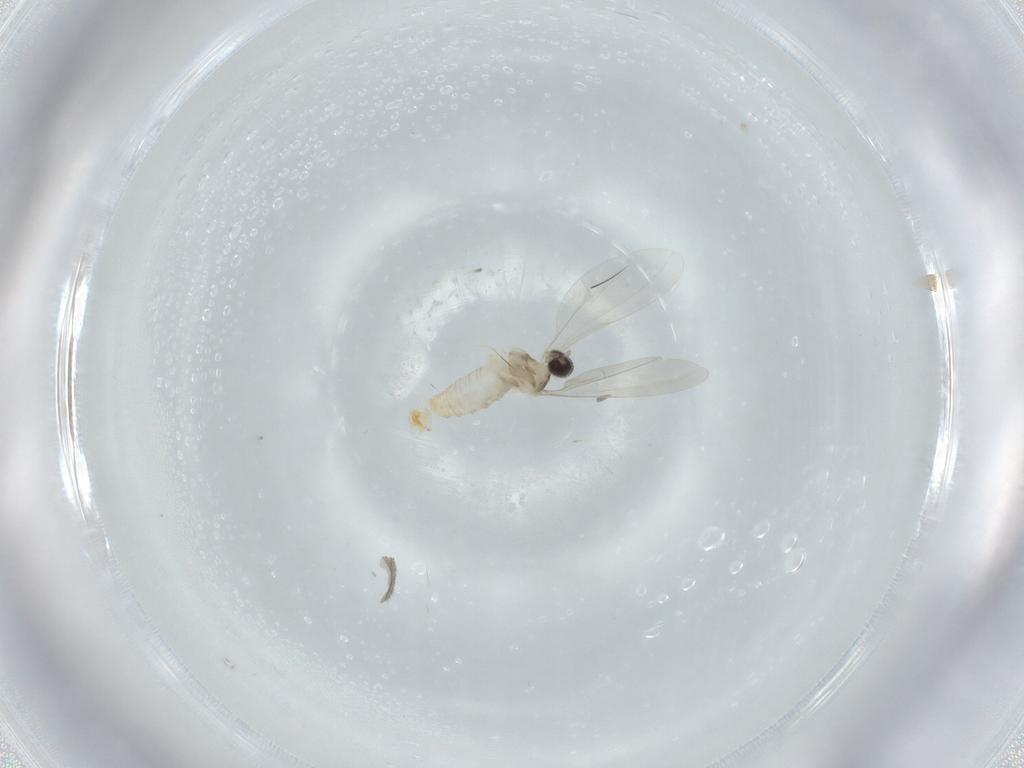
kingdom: Animalia
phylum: Arthropoda
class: Insecta
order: Diptera
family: Cecidomyiidae
